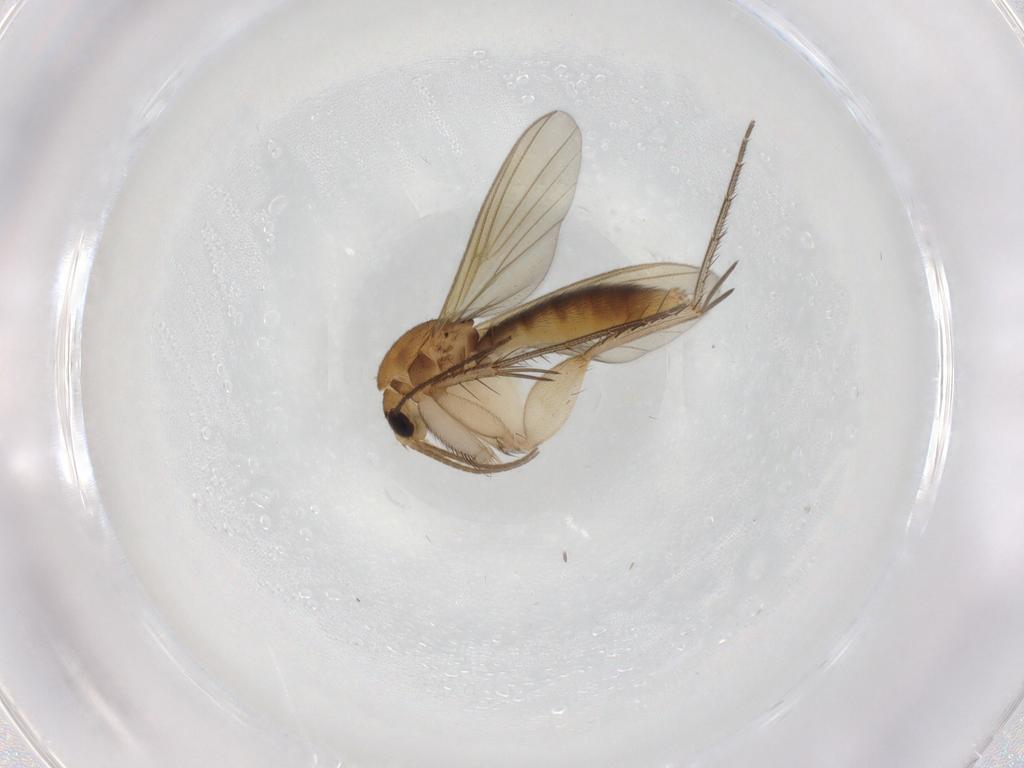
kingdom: Animalia
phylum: Arthropoda
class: Insecta
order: Diptera
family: Mycetophilidae
